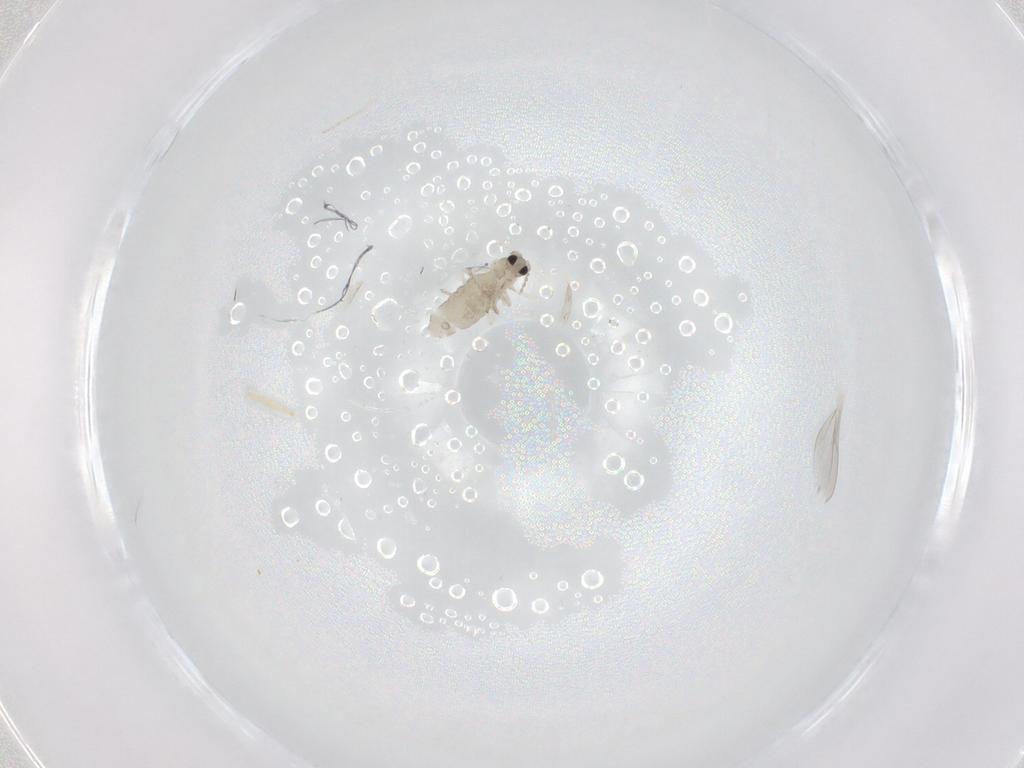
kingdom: Animalia
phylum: Arthropoda
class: Insecta
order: Diptera
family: Cecidomyiidae
